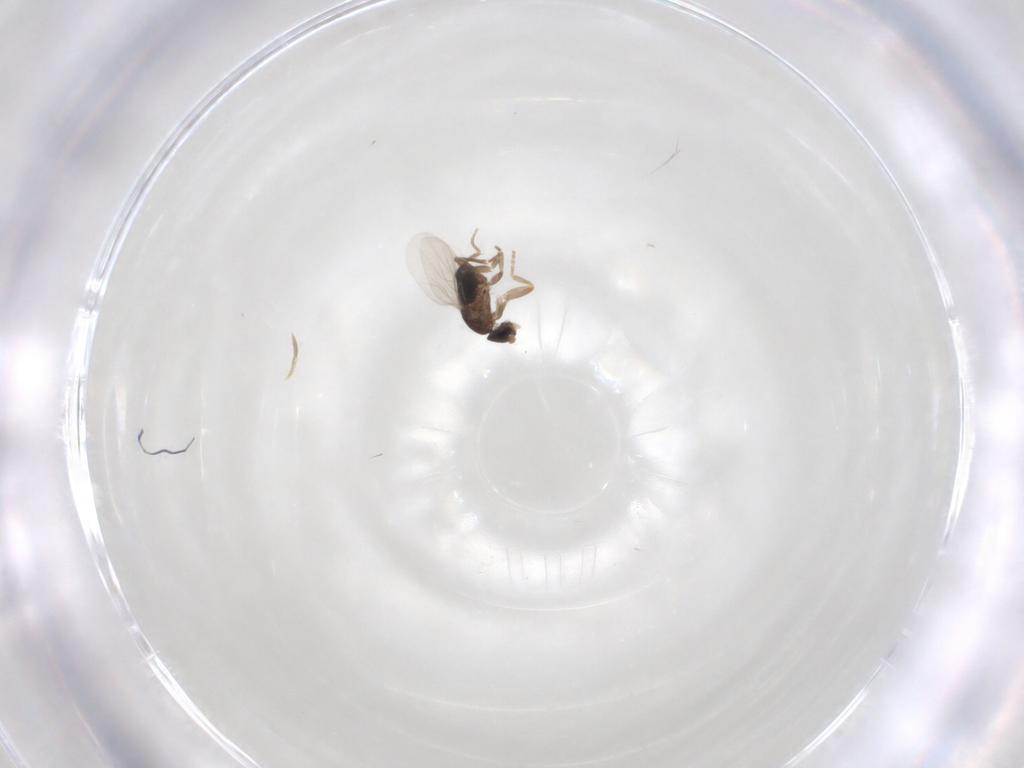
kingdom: Animalia
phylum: Arthropoda
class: Insecta
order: Diptera
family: Phoridae
